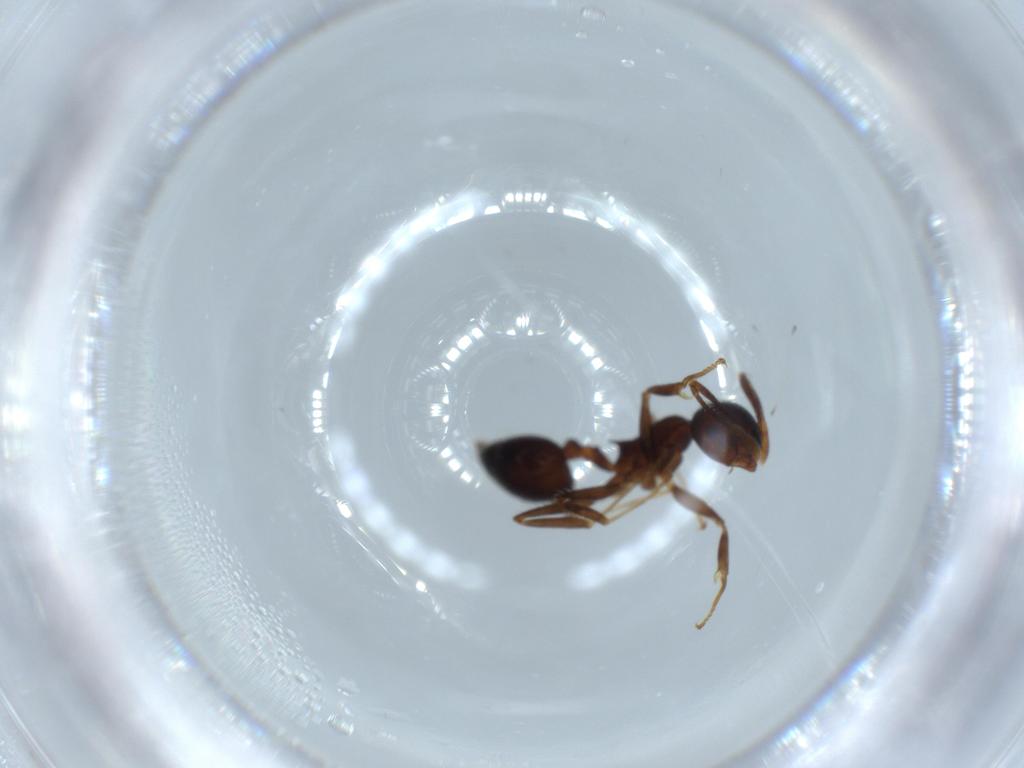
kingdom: Animalia
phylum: Arthropoda
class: Insecta
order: Hymenoptera
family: Formicidae
